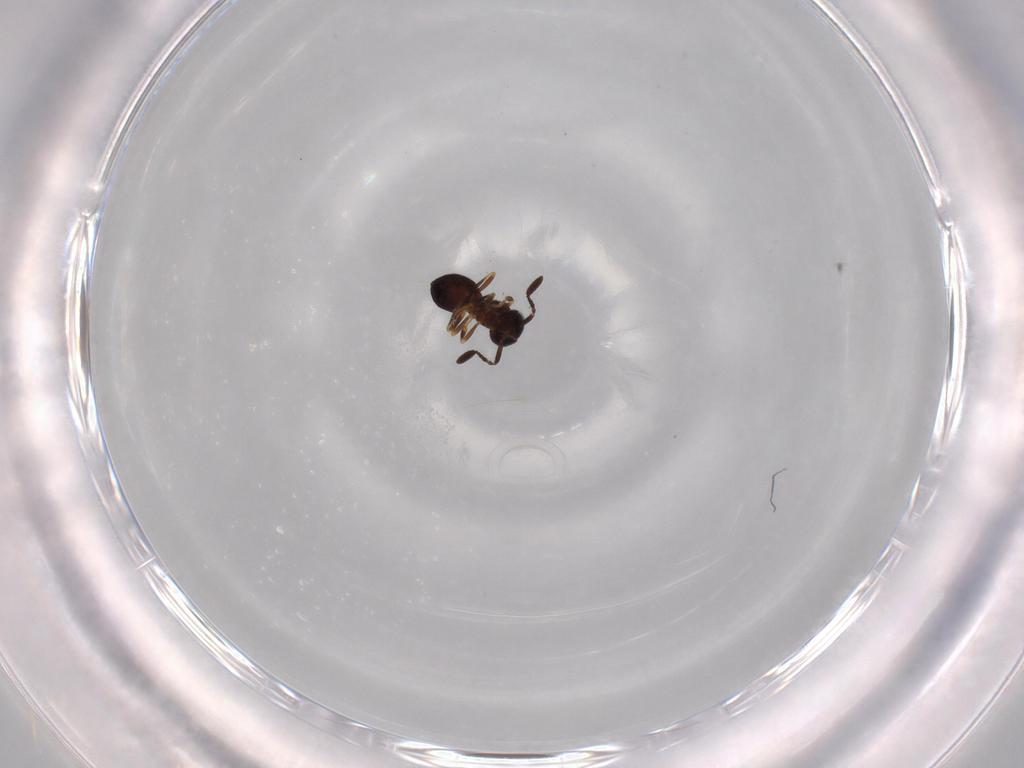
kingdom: Animalia
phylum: Arthropoda
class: Insecta
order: Hymenoptera
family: Scelionidae
